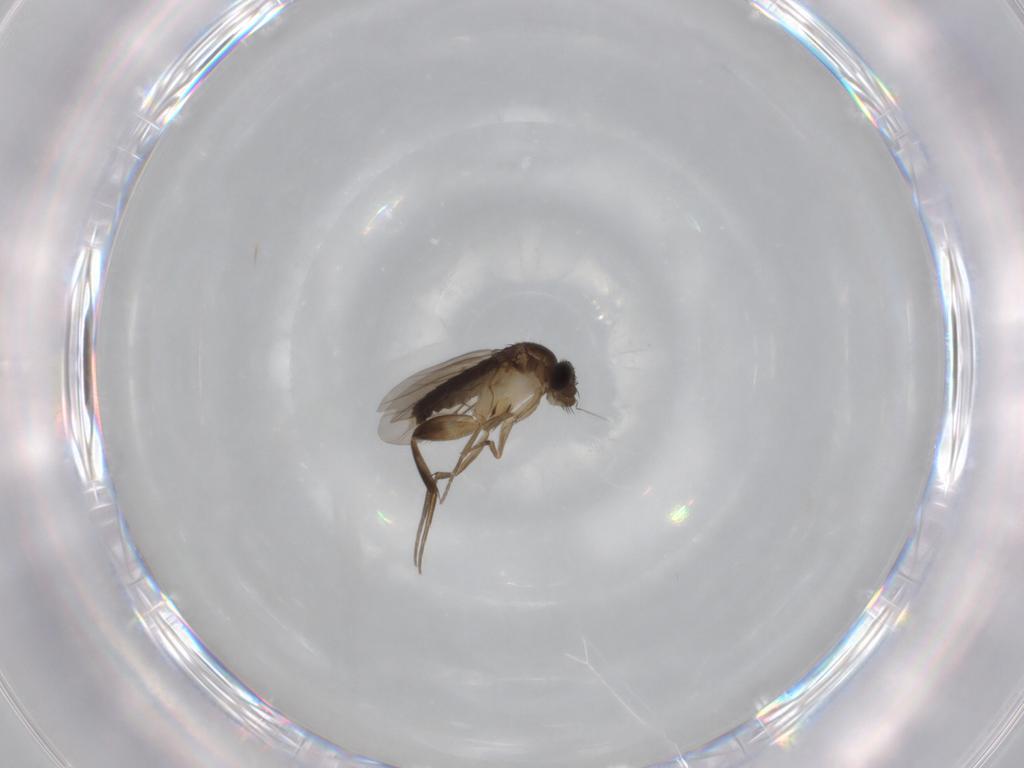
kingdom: Animalia
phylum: Arthropoda
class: Insecta
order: Diptera
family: Phoridae
